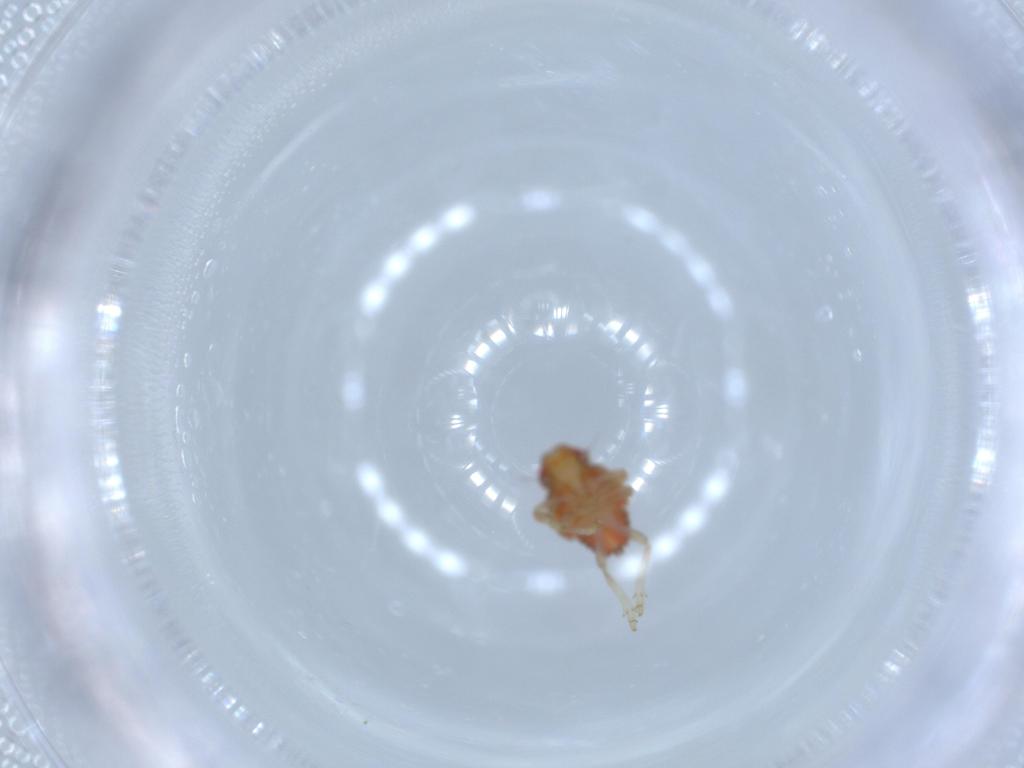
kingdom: Animalia
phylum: Arthropoda
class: Insecta
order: Hemiptera
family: Issidae
